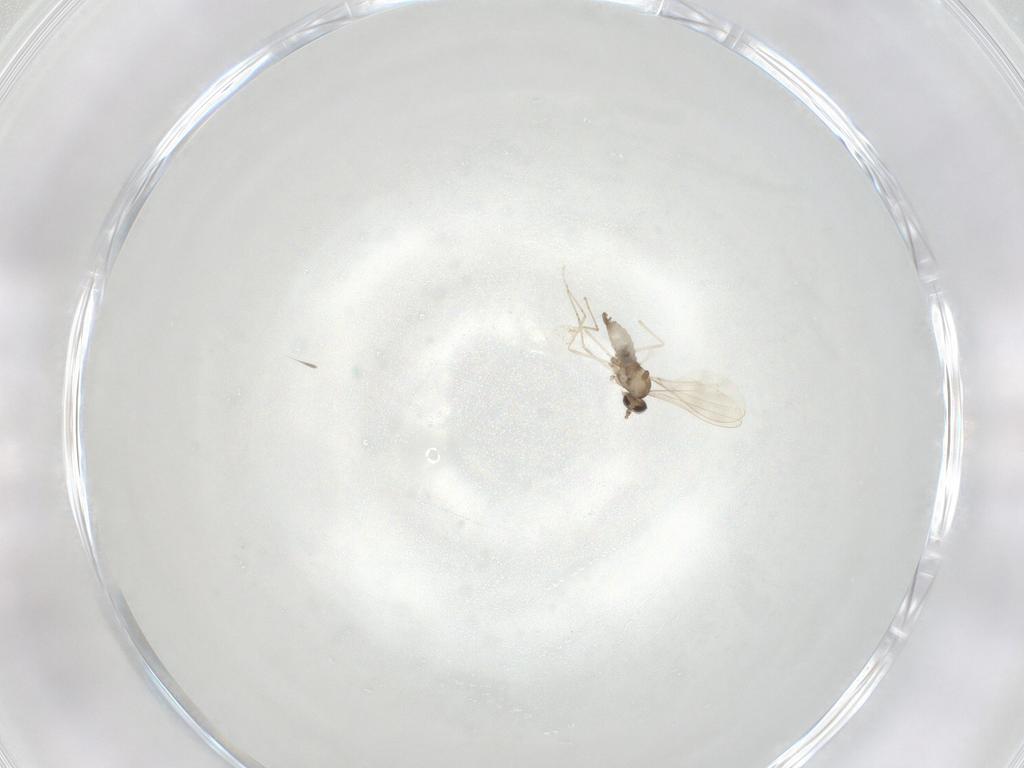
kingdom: Animalia
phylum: Arthropoda
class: Insecta
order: Diptera
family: Cecidomyiidae
